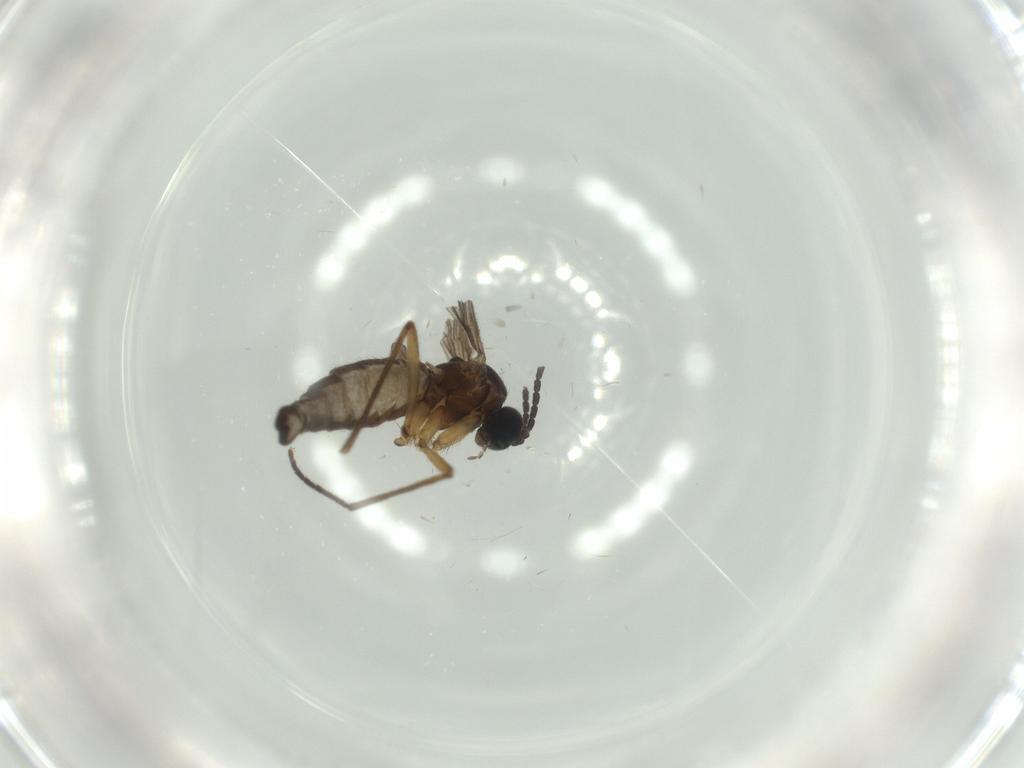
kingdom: Animalia
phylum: Arthropoda
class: Insecta
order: Diptera
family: Sciaridae
